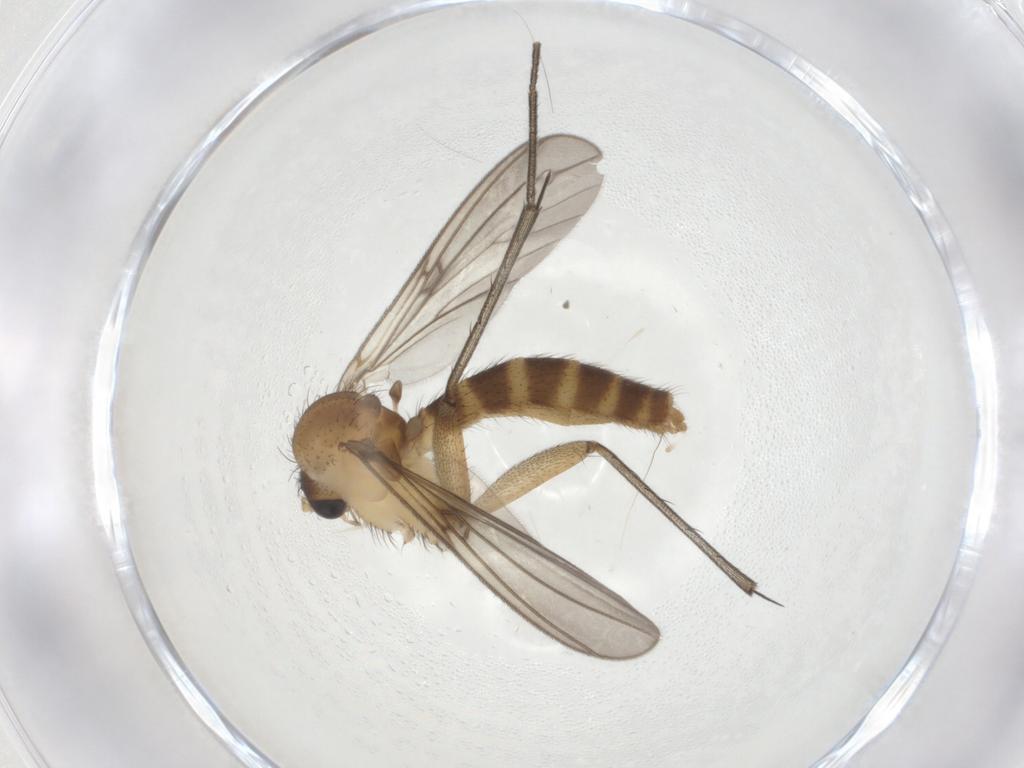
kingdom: Animalia
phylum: Arthropoda
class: Insecta
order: Diptera
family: Mycetophilidae
